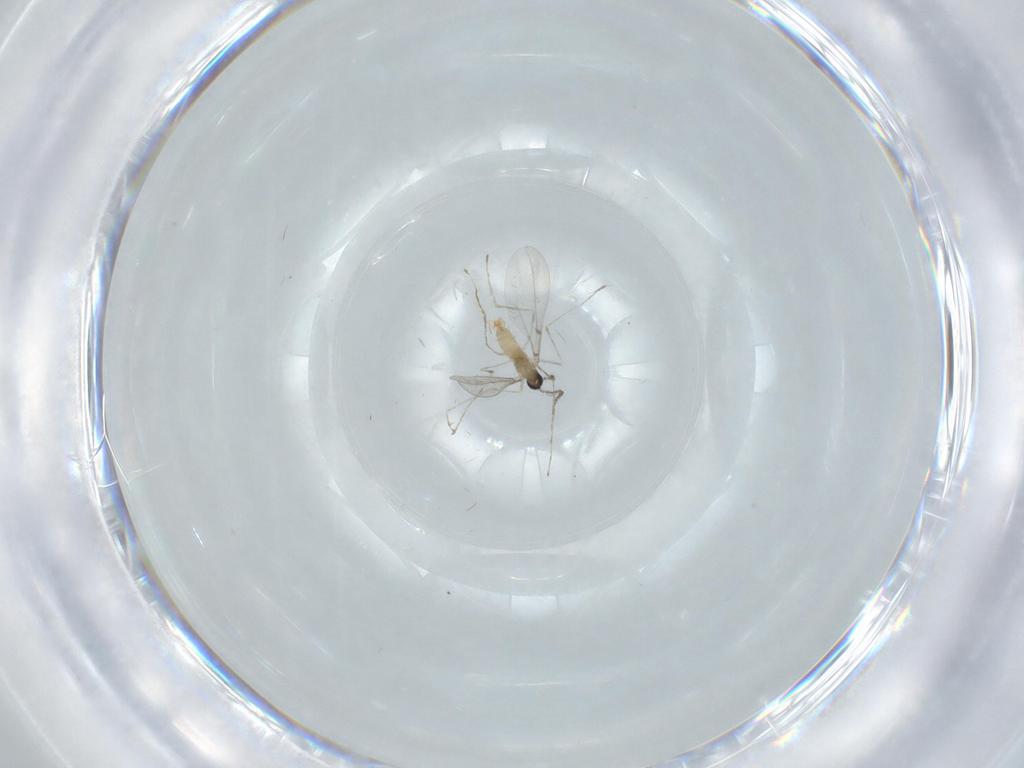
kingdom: Animalia
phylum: Arthropoda
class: Insecta
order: Diptera
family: Cecidomyiidae
